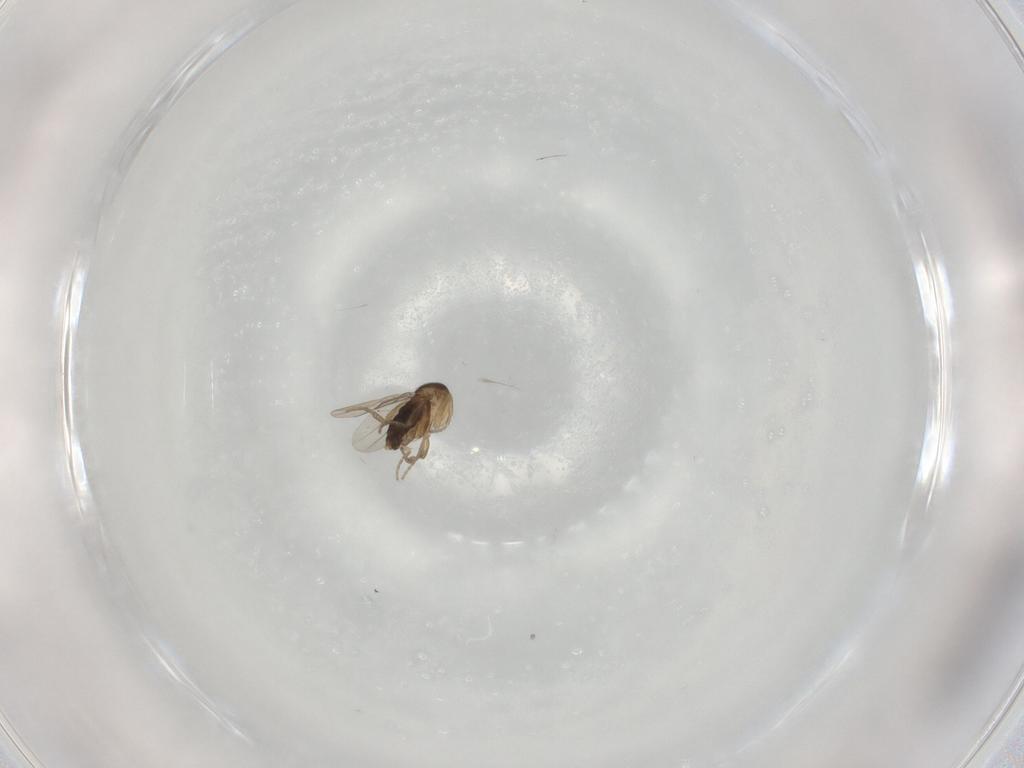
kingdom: Animalia
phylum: Arthropoda
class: Insecta
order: Diptera
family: Phoridae
